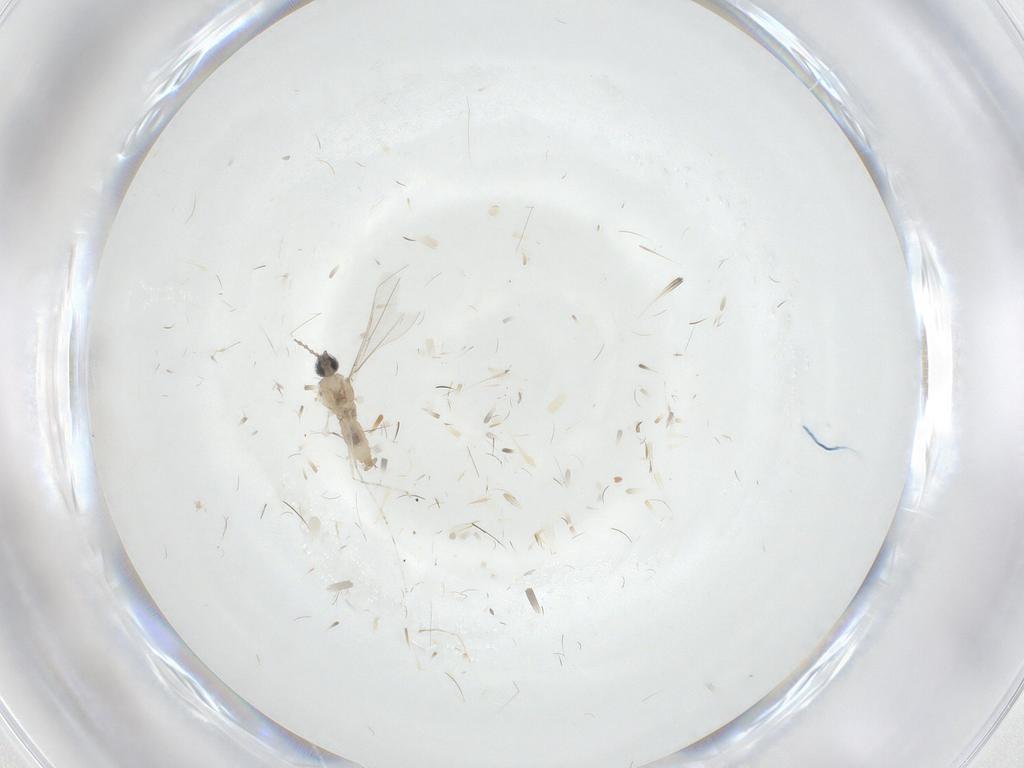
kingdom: Animalia
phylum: Arthropoda
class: Insecta
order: Diptera
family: Cecidomyiidae
